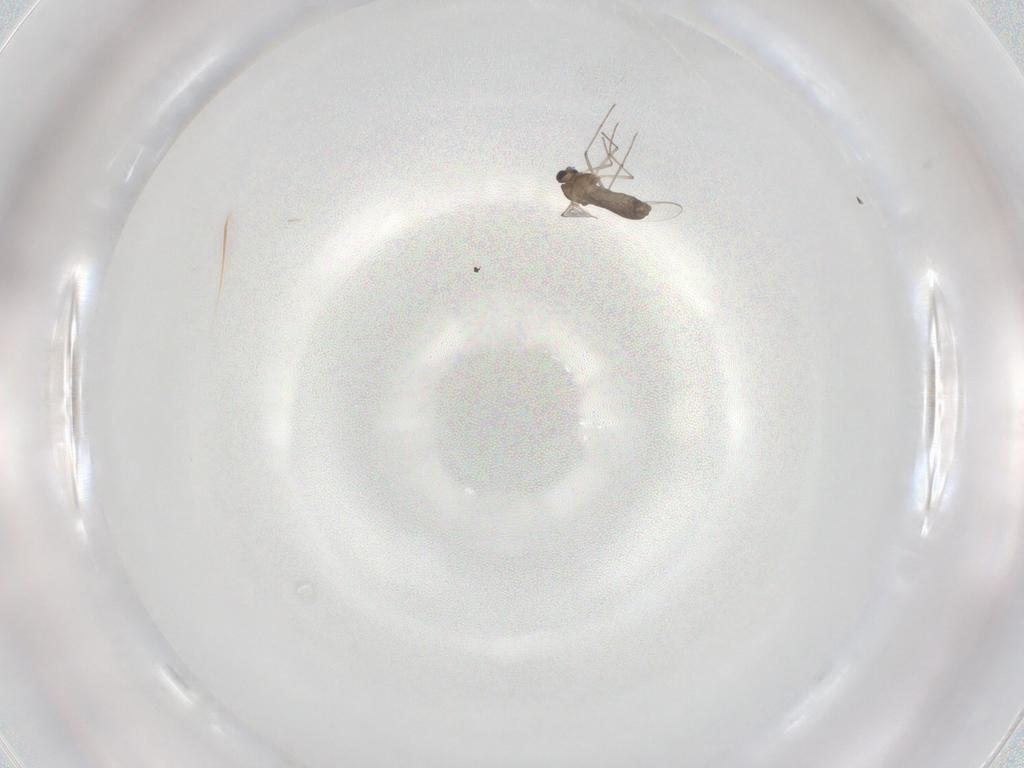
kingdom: Animalia
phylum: Arthropoda
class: Insecta
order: Diptera
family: Chironomidae
